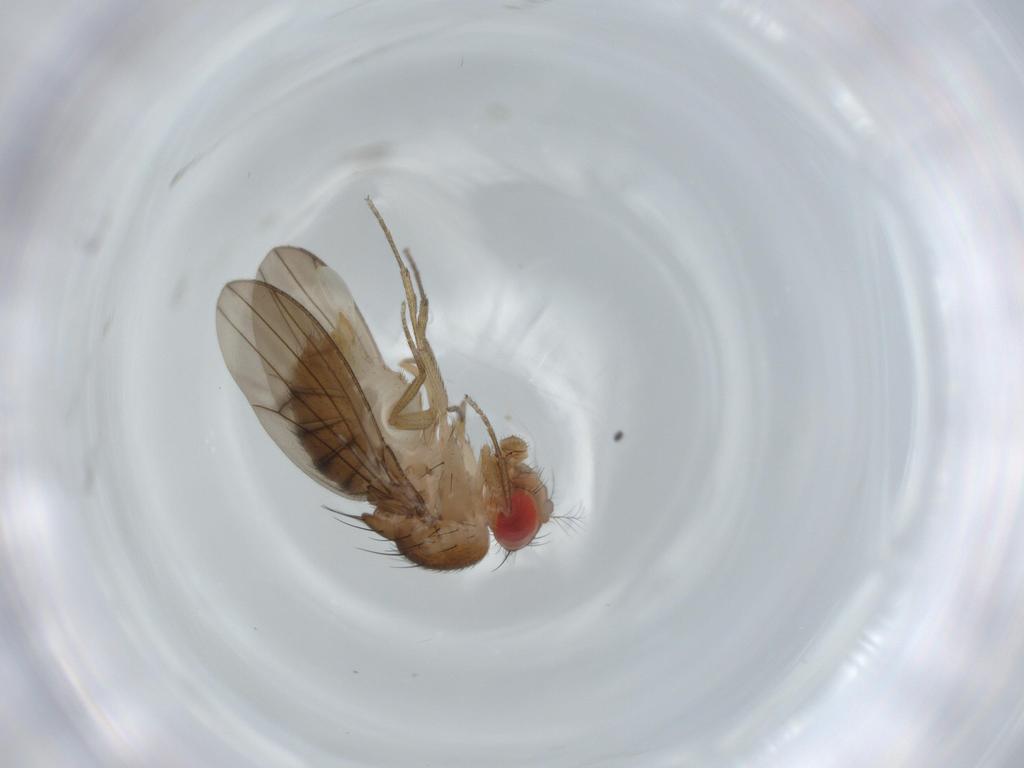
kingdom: Animalia
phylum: Arthropoda
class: Insecta
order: Diptera
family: Drosophilidae
